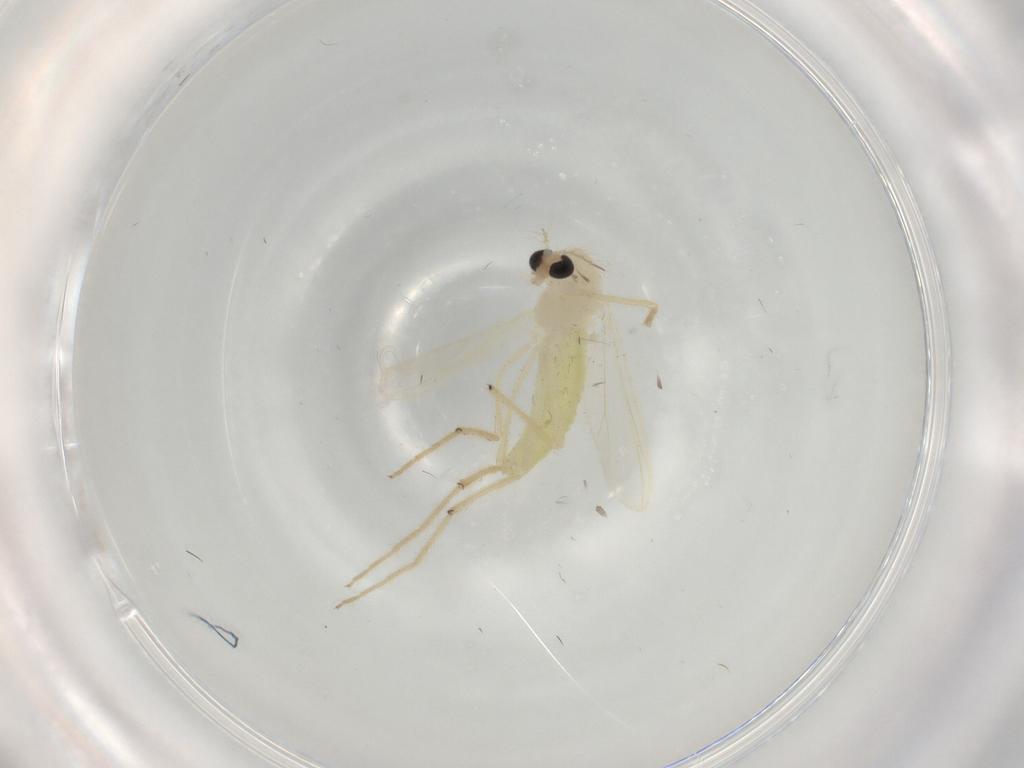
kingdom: Animalia
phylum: Arthropoda
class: Insecta
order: Diptera
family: Chironomidae
